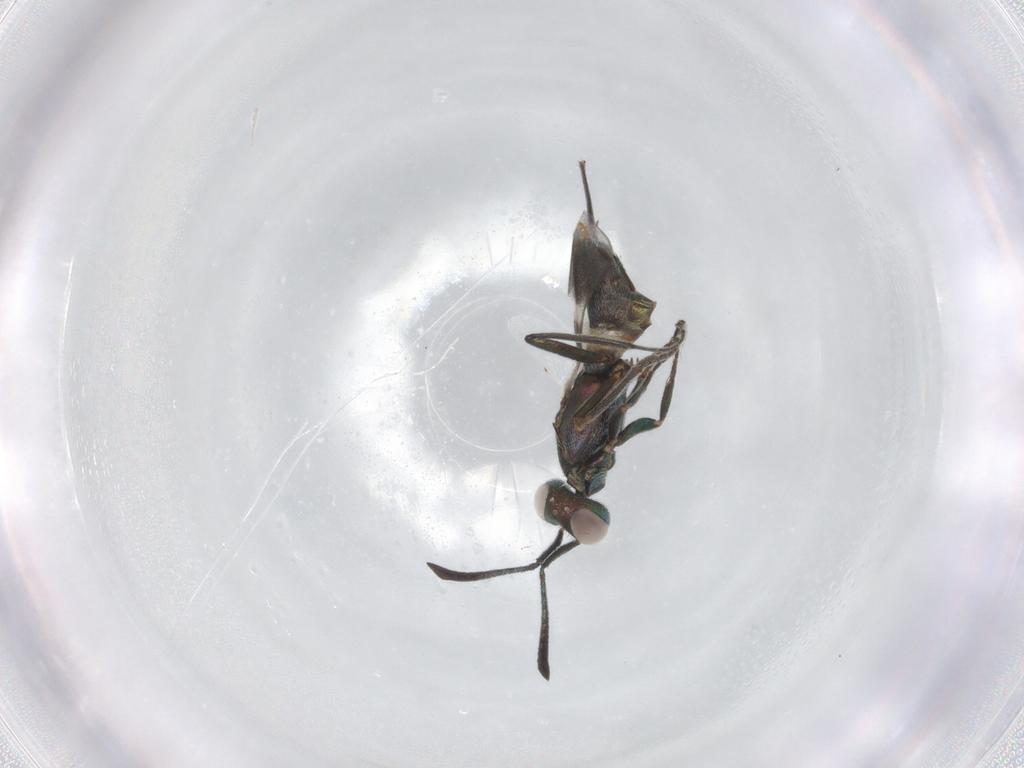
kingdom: Animalia
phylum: Arthropoda
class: Insecta
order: Hymenoptera
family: Eupelmidae
